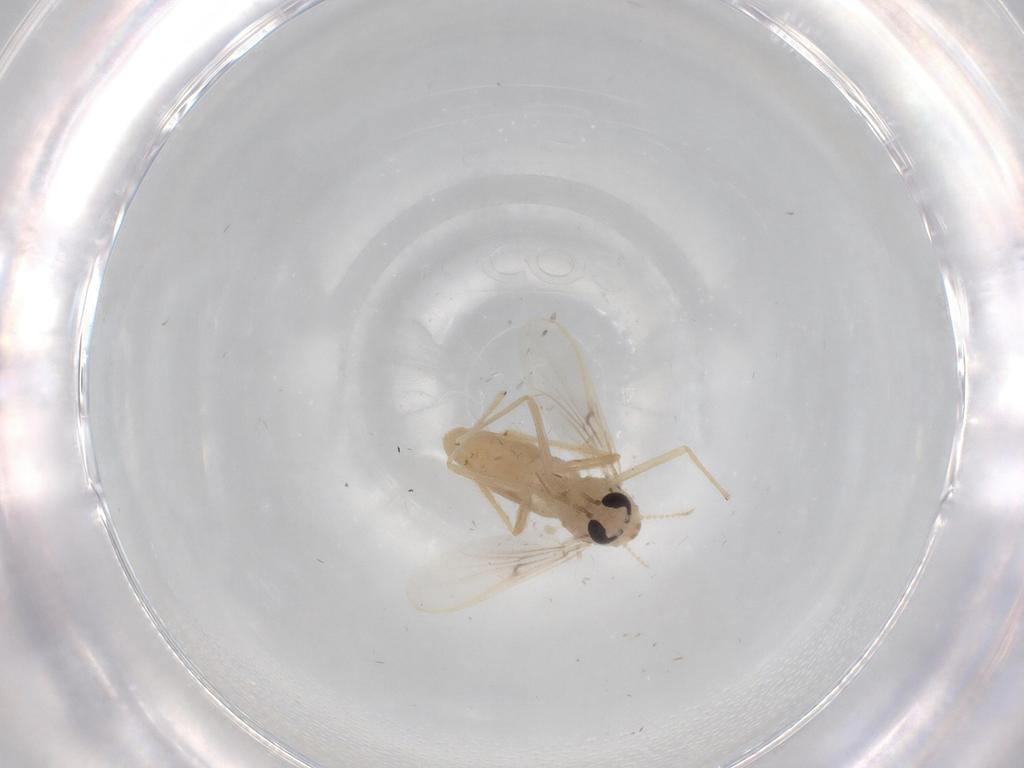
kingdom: Animalia
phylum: Arthropoda
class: Insecta
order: Diptera
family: Chironomidae
